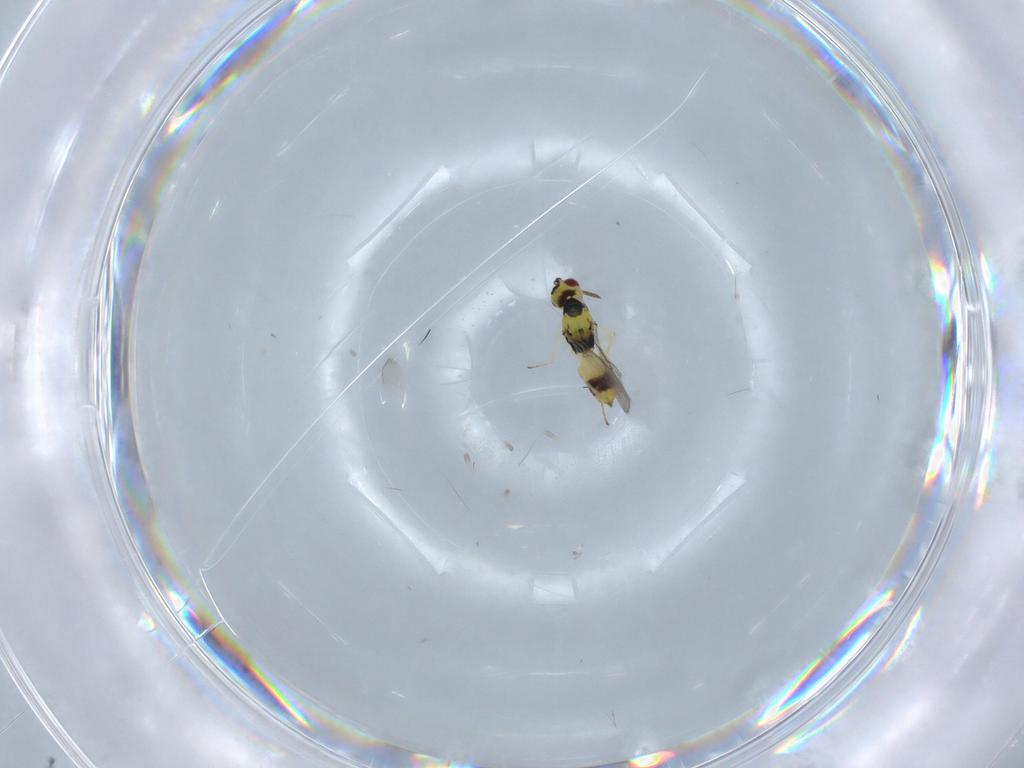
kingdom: Animalia
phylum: Arthropoda
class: Insecta
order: Hymenoptera
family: Eulophidae
